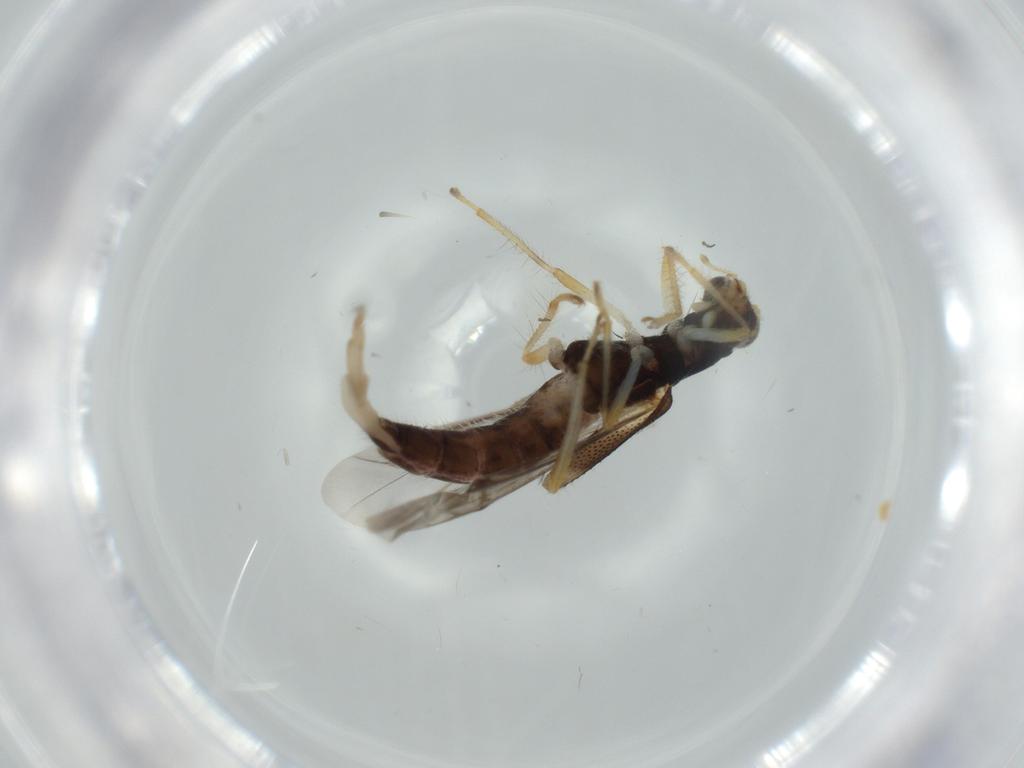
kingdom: Animalia
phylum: Arthropoda
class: Insecta
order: Coleoptera
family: Cleridae
